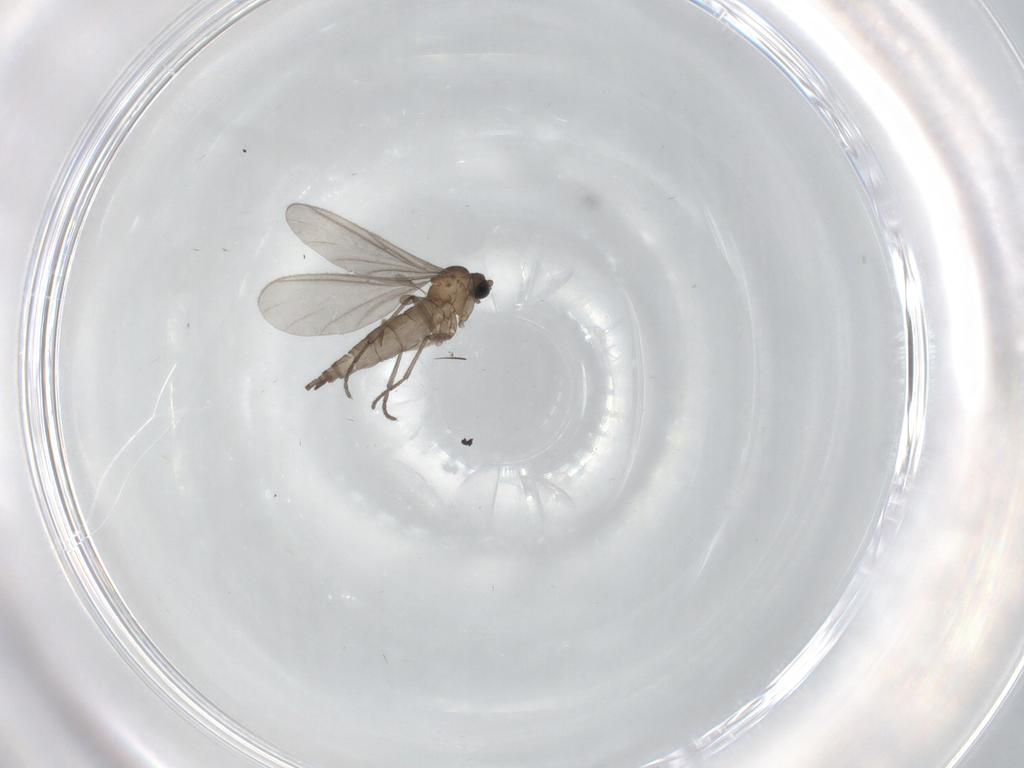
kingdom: Animalia
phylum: Arthropoda
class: Insecta
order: Diptera
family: Sciaridae
